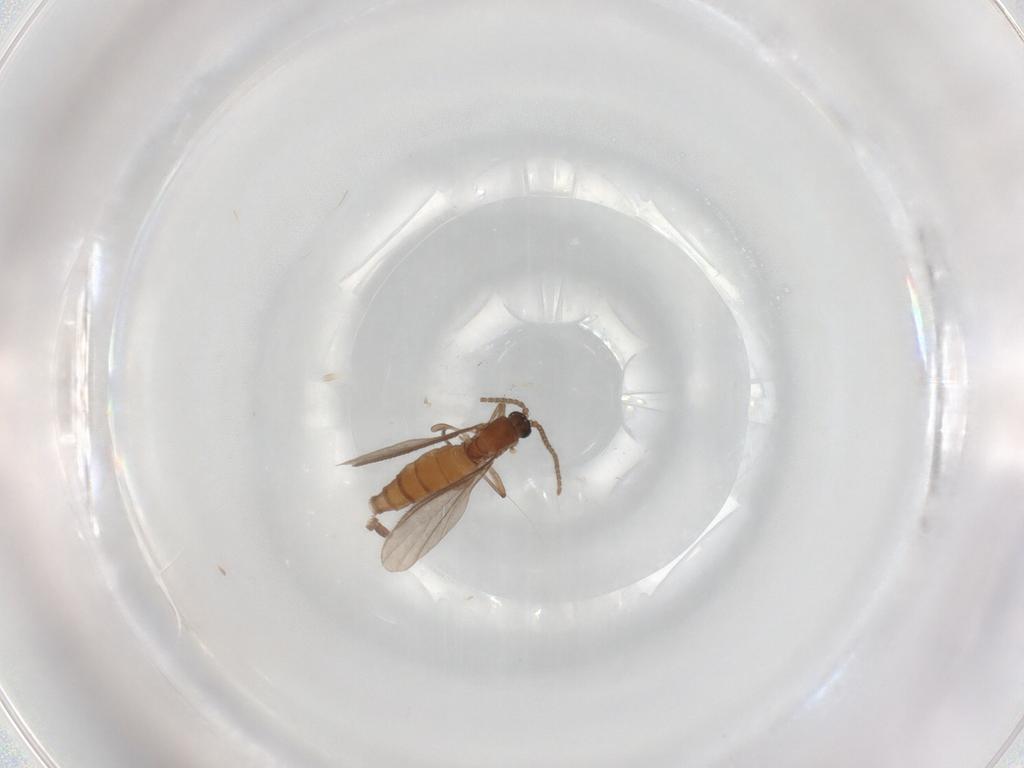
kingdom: Animalia
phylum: Arthropoda
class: Insecta
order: Diptera
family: Sciaridae
